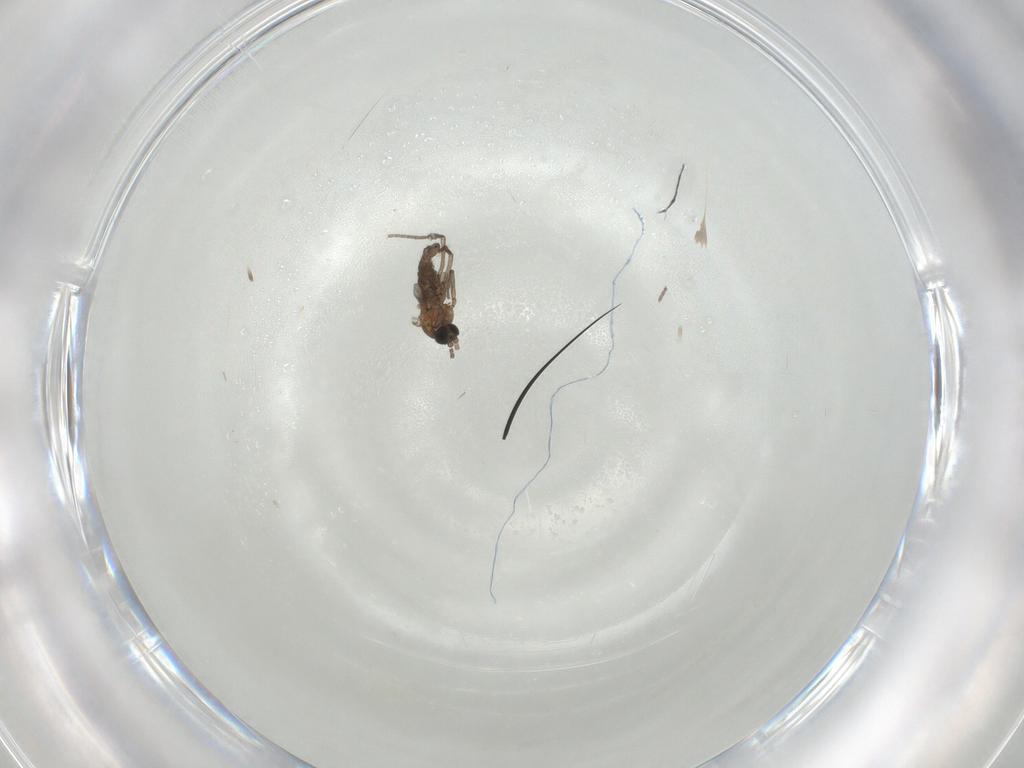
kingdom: Animalia
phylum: Arthropoda
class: Insecta
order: Diptera
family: Sciaridae
